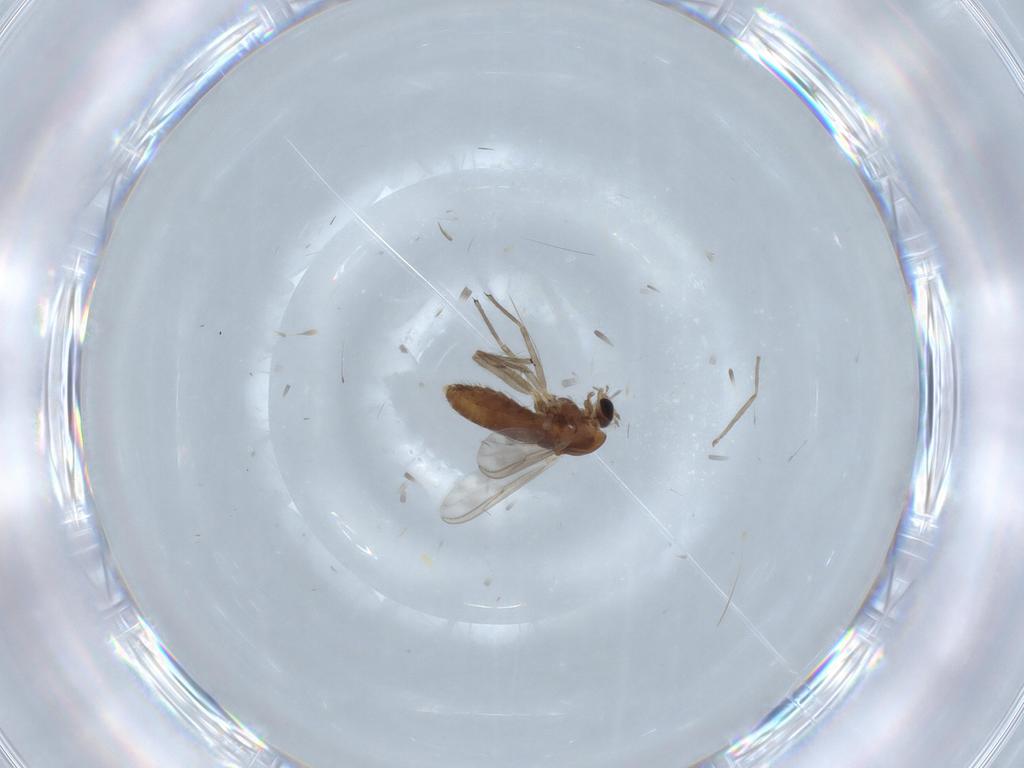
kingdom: Animalia
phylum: Arthropoda
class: Insecta
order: Diptera
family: Chironomidae
